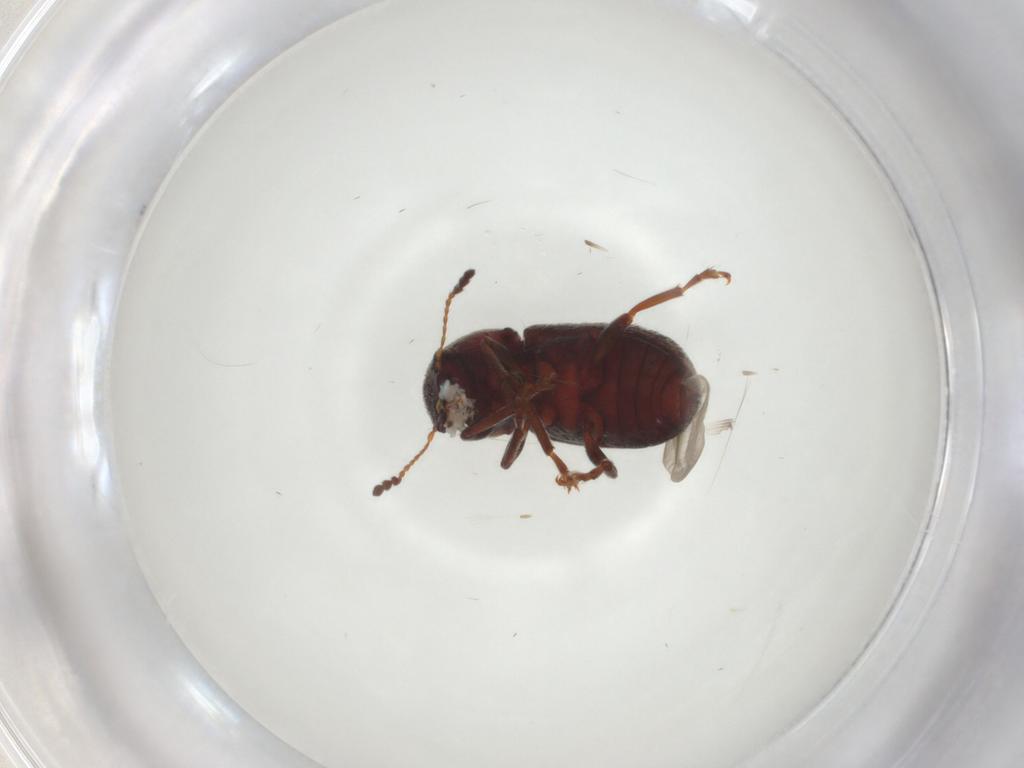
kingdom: Animalia
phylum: Arthropoda
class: Insecta
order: Coleoptera
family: Anthribidae
